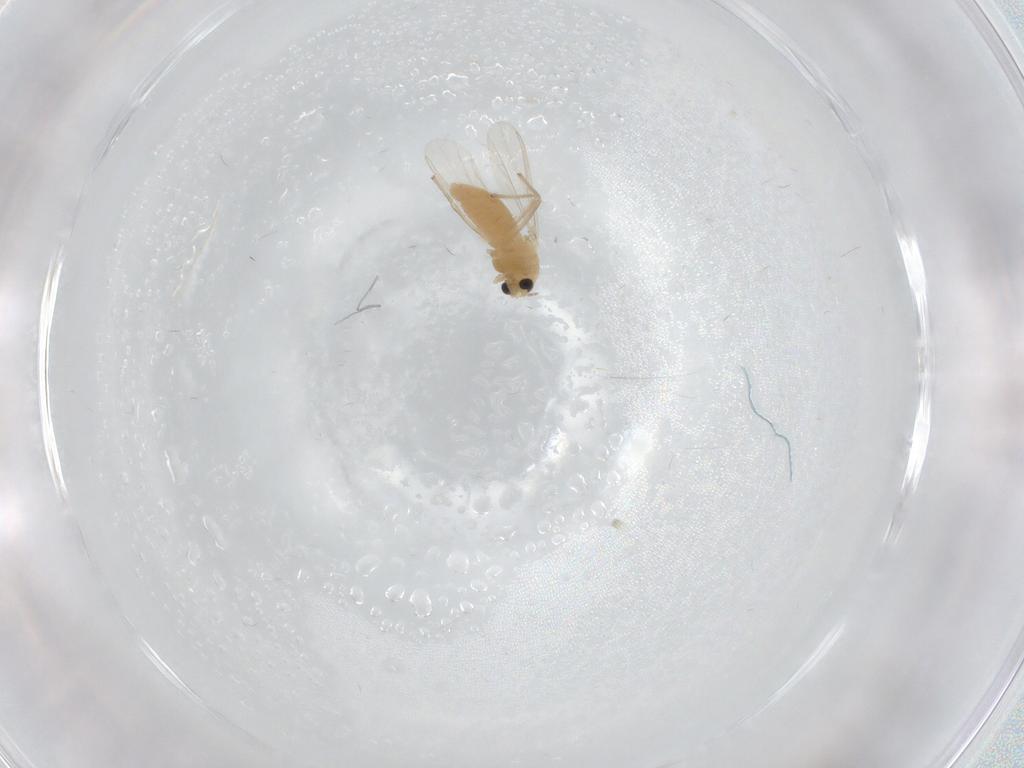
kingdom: Animalia
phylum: Arthropoda
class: Insecta
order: Diptera
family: Chironomidae
